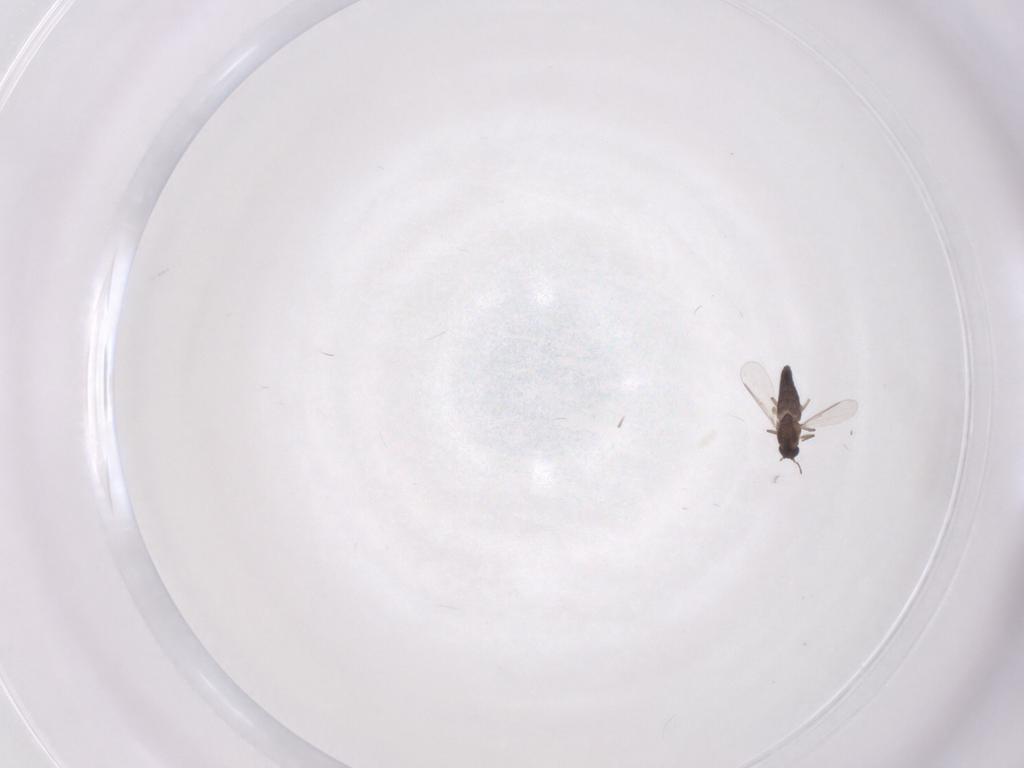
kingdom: Animalia
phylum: Arthropoda
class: Insecta
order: Diptera
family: Chironomidae
